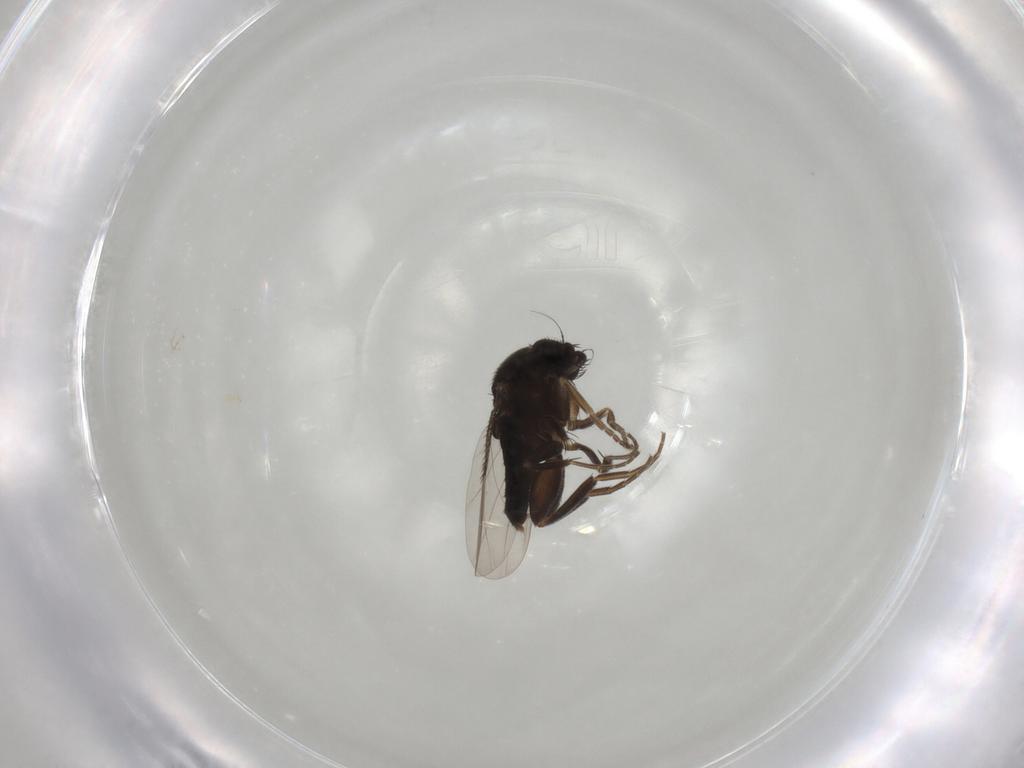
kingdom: Animalia
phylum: Arthropoda
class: Insecta
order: Diptera
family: Phoridae
